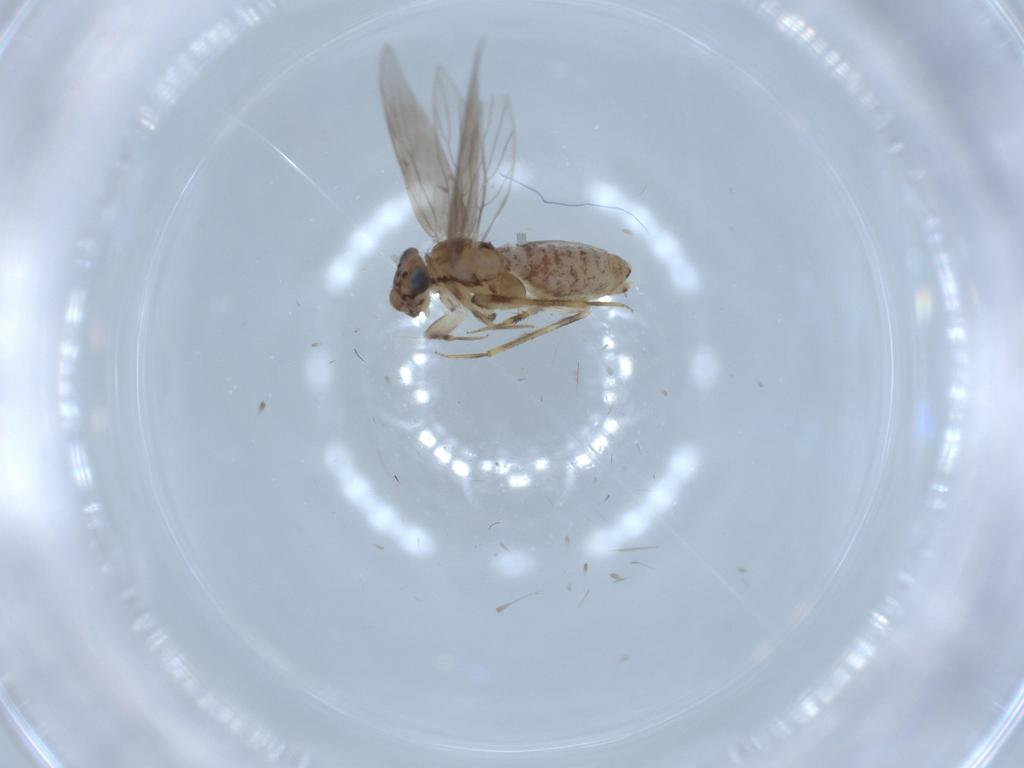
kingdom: Animalia
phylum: Arthropoda
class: Insecta
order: Psocodea
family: Lepidopsocidae
